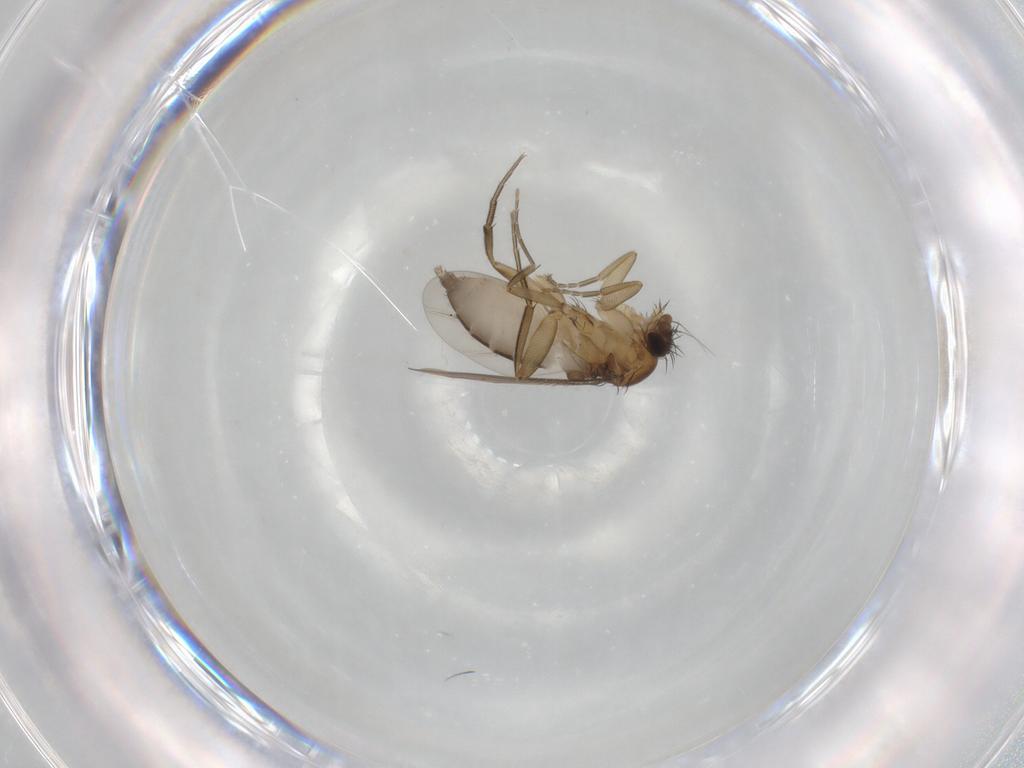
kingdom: Animalia
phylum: Arthropoda
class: Insecta
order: Diptera
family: Phoridae
